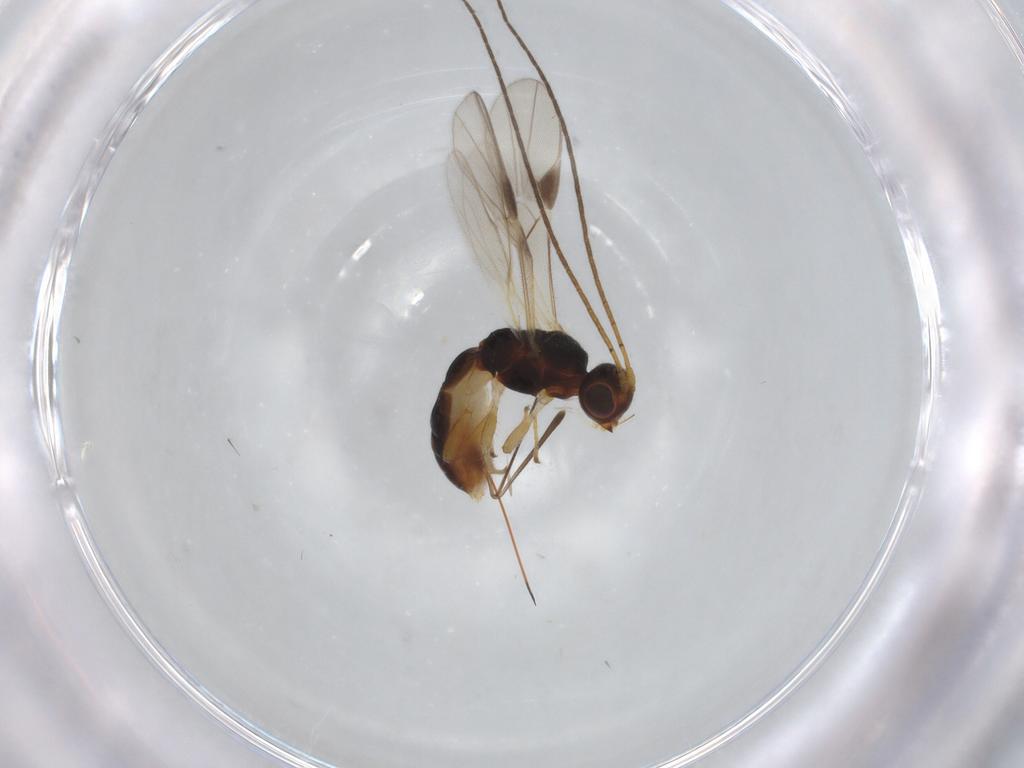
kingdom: Animalia
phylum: Arthropoda
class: Insecta
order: Hymenoptera
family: Braconidae
